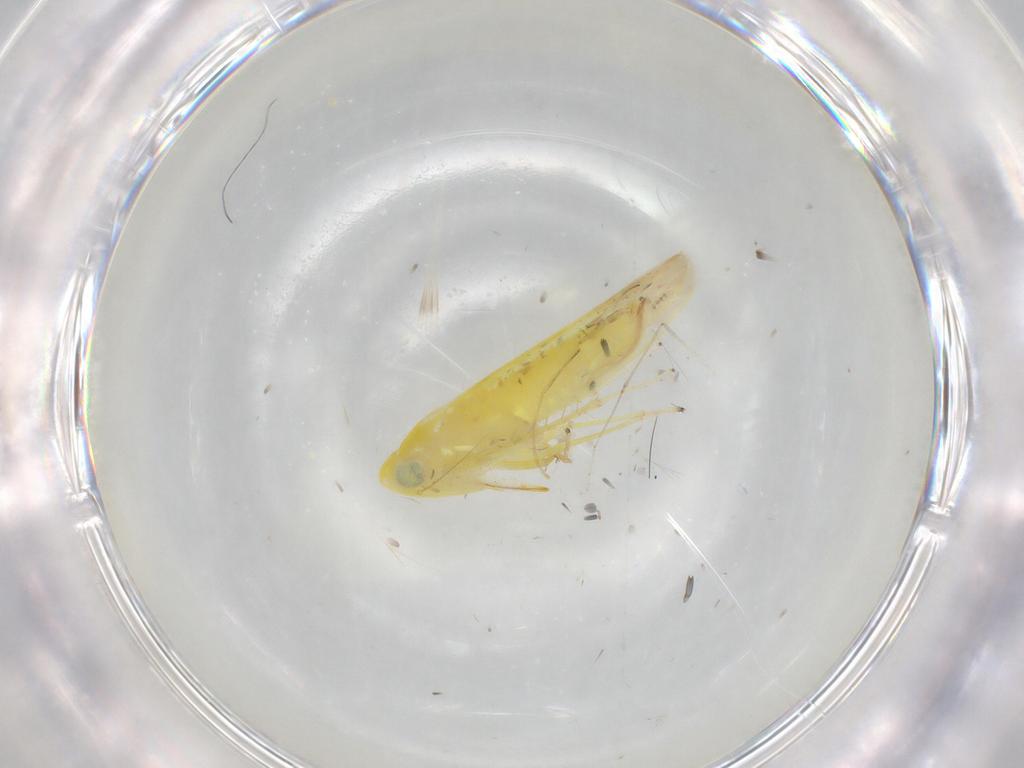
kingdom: Animalia
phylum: Arthropoda
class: Insecta
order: Hemiptera
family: Cicadellidae
